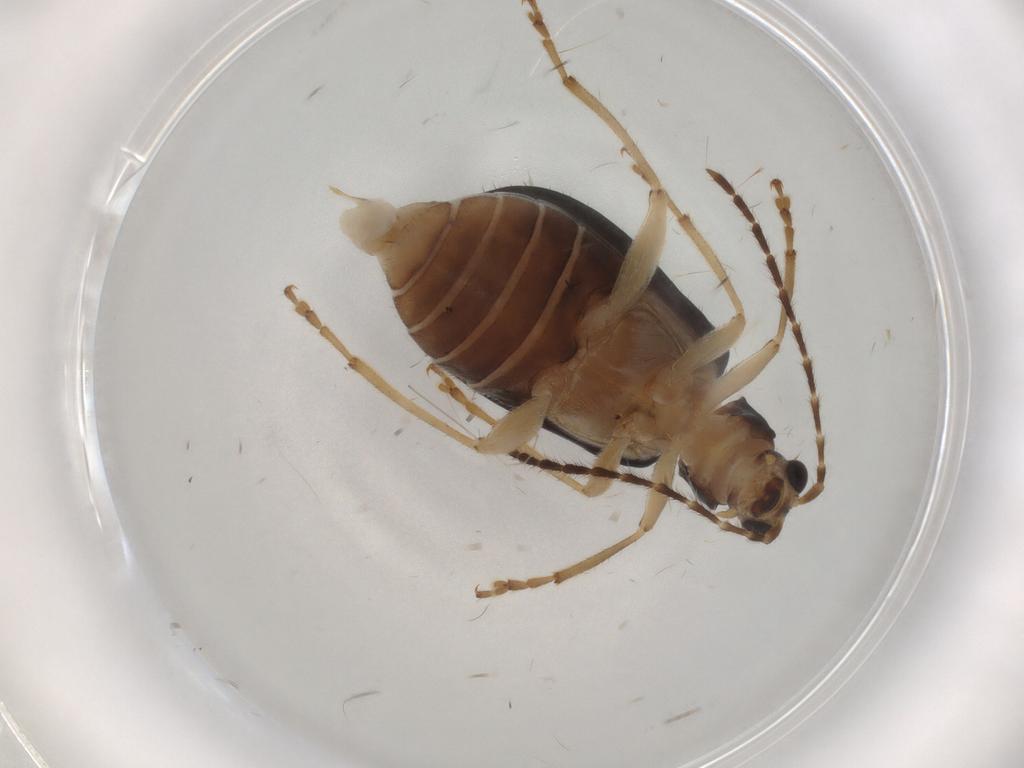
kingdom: Animalia
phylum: Arthropoda
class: Insecta
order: Coleoptera
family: Chrysomelidae
